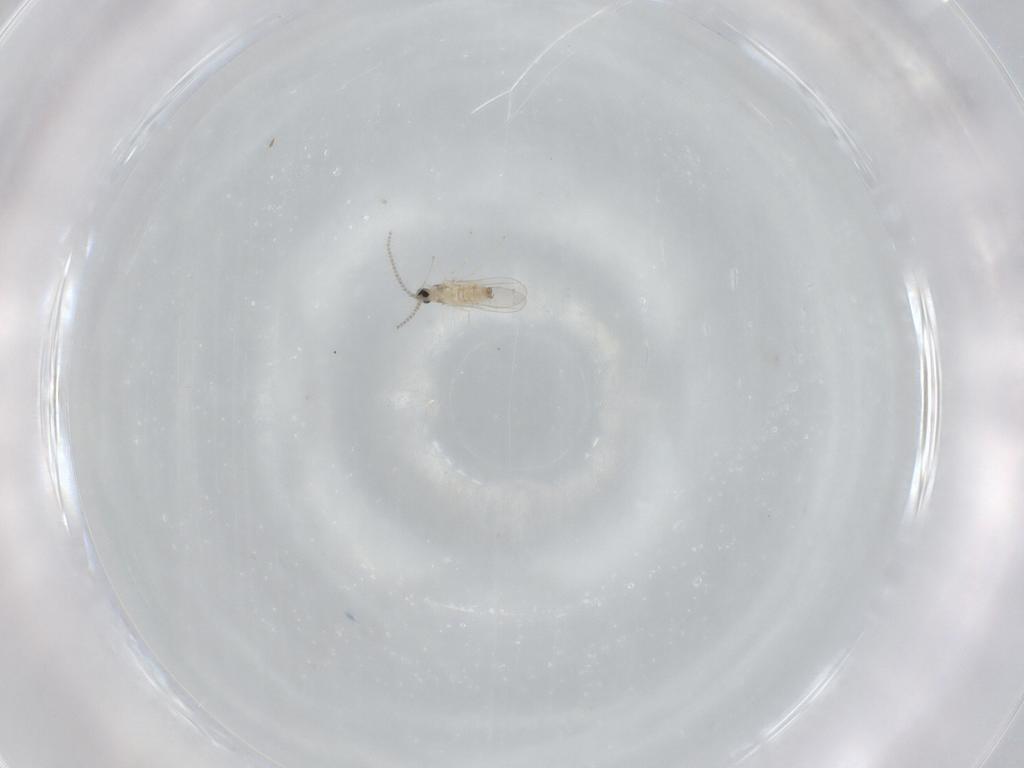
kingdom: Animalia
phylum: Arthropoda
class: Insecta
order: Diptera
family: Cecidomyiidae
